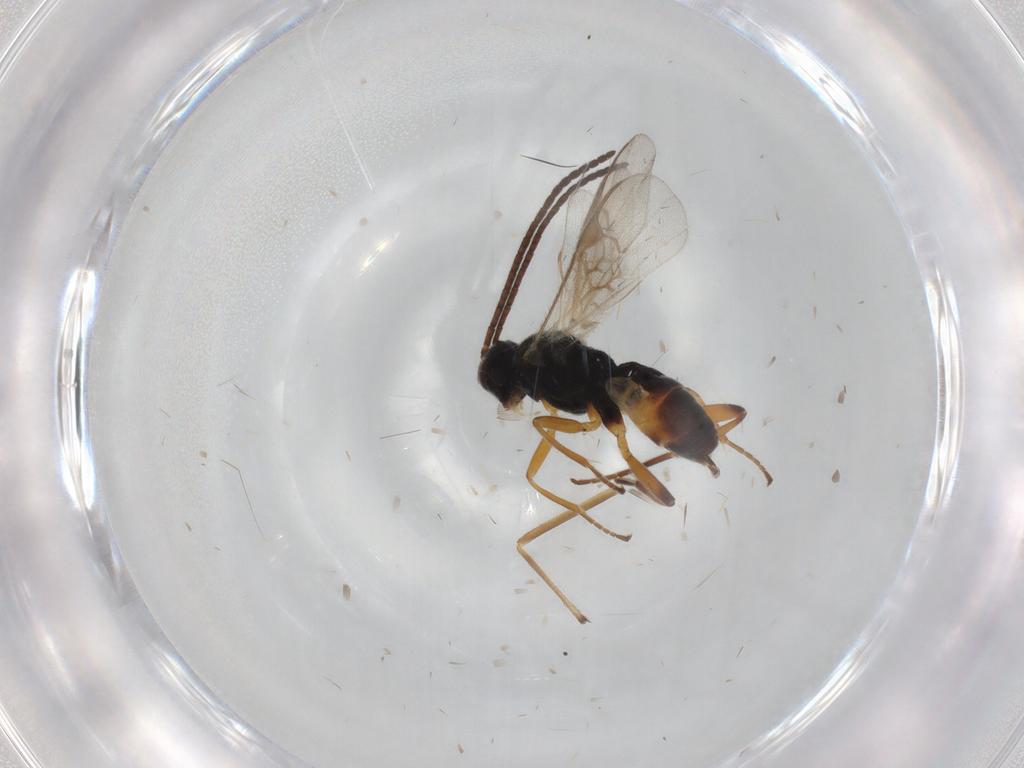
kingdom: Animalia
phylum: Arthropoda
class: Insecta
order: Hymenoptera
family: Braconidae
